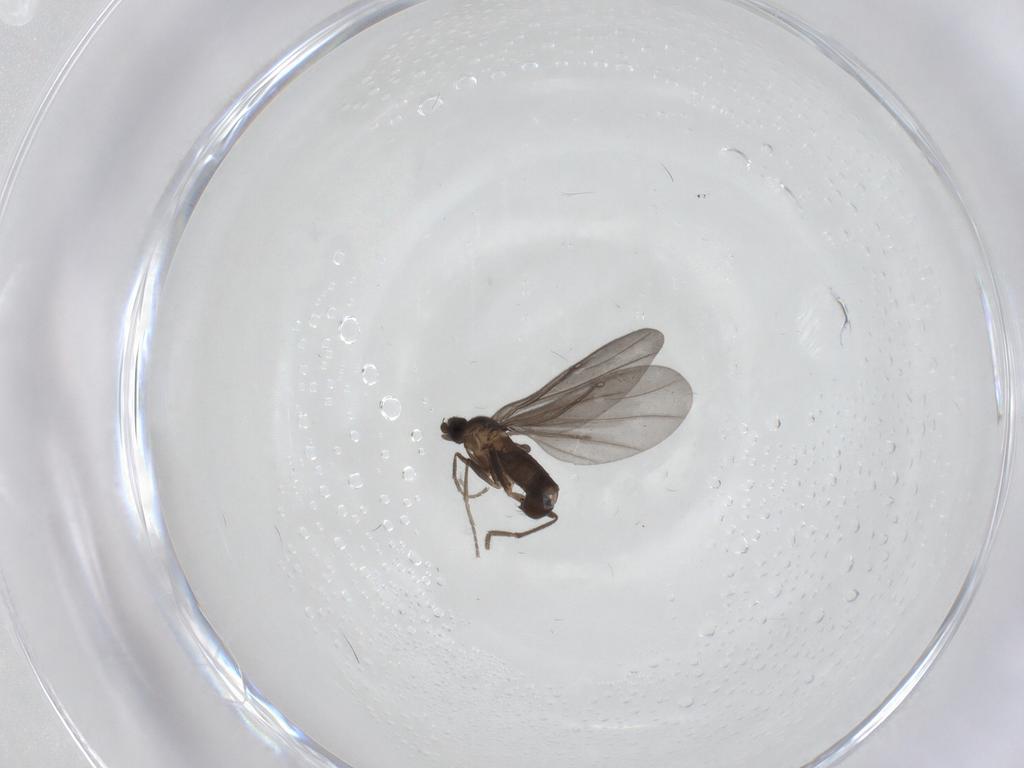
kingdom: Animalia
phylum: Arthropoda
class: Insecta
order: Diptera
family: Phoridae
